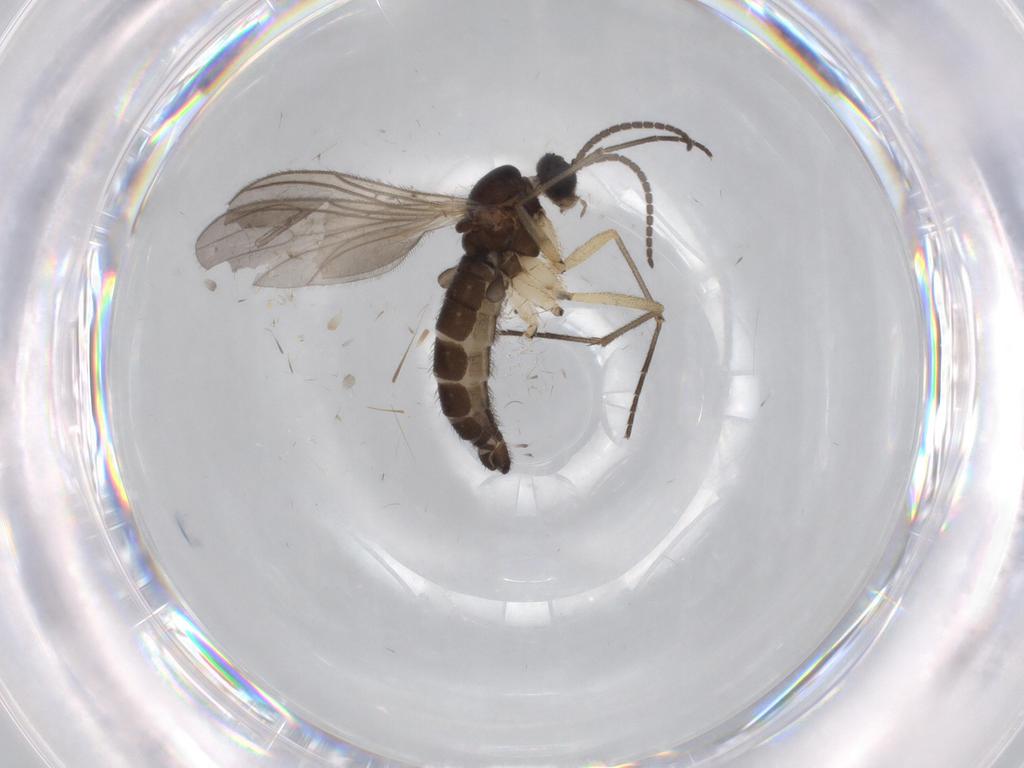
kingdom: Animalia
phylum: Arthropoda
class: Insecta
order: Diptera
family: Sciaridae
